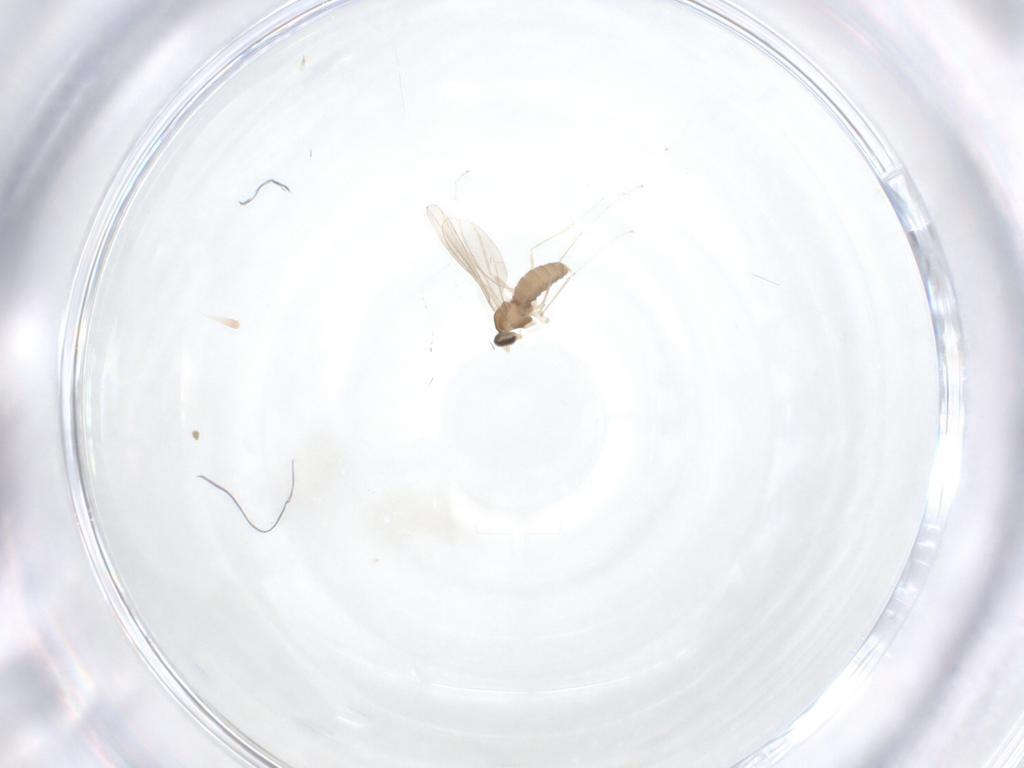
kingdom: Animalia
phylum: Arthropoda
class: Insecta
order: Diptera
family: Cecidomyiidae
